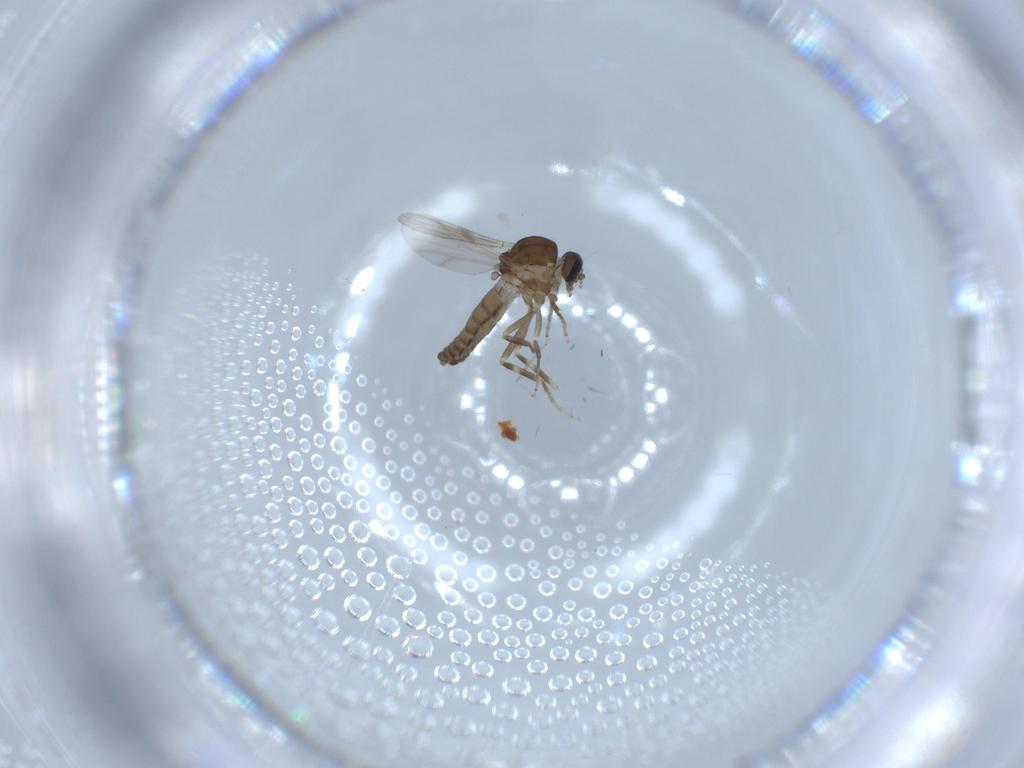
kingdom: Animalia
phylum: Arthropoda
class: Insecta
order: Diptera
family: Ceratopogonidae
